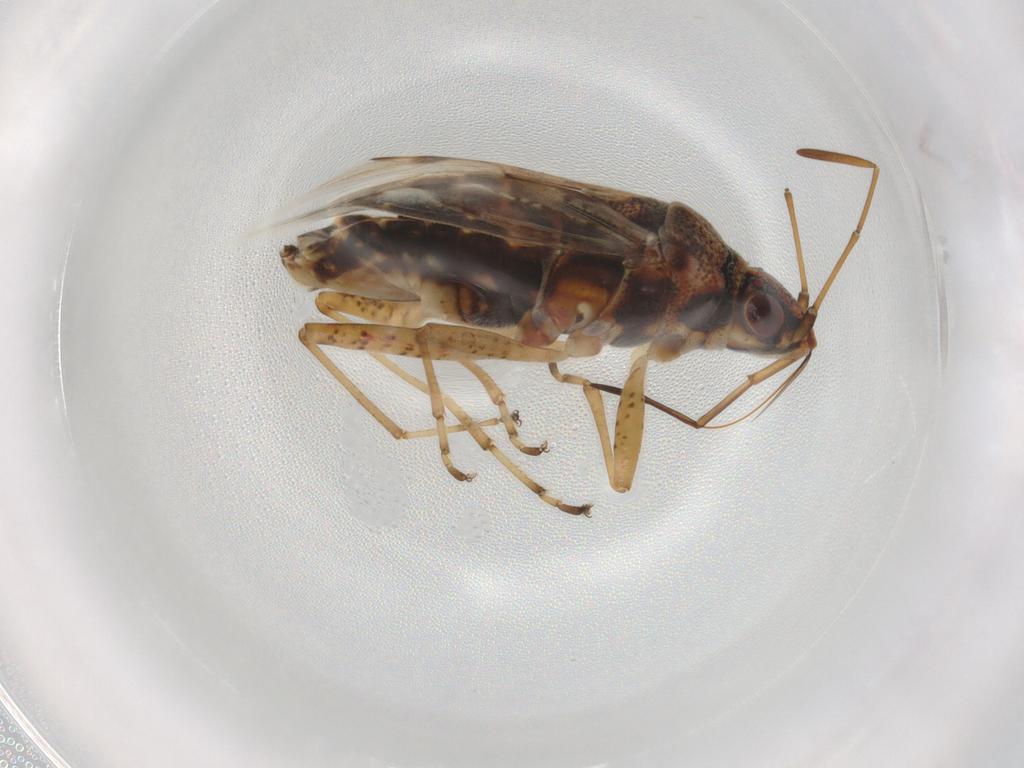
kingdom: Animalia
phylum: Arthropoda
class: Insecta
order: Hemiptera
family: Lygaeidae
